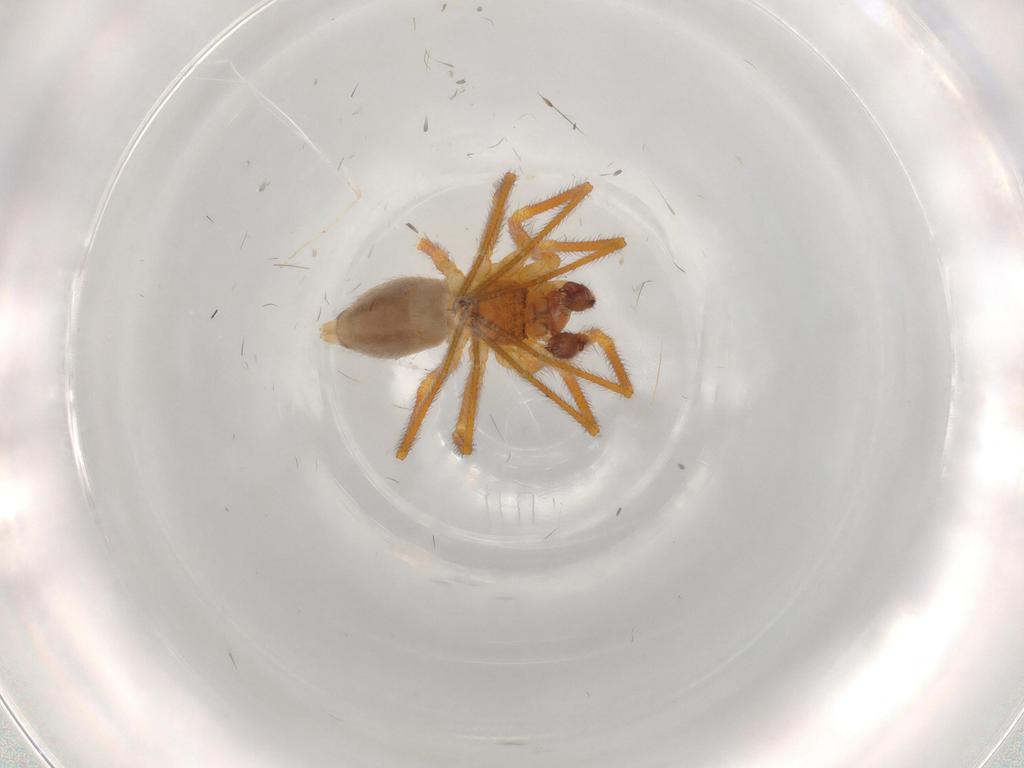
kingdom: Animalia
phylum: Arthropoda
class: Arachnida
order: Araneae
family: Linyphiidae
